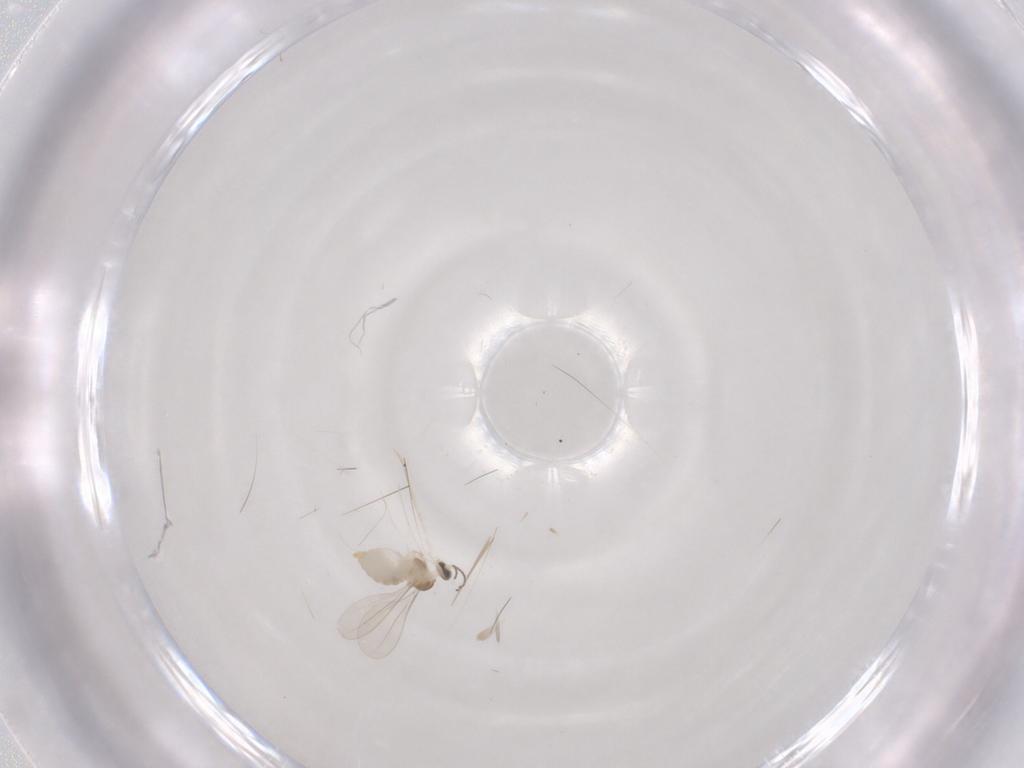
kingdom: Animalia
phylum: Arthropoda
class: Insecta
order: Diptera
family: Cecidomyiidae
